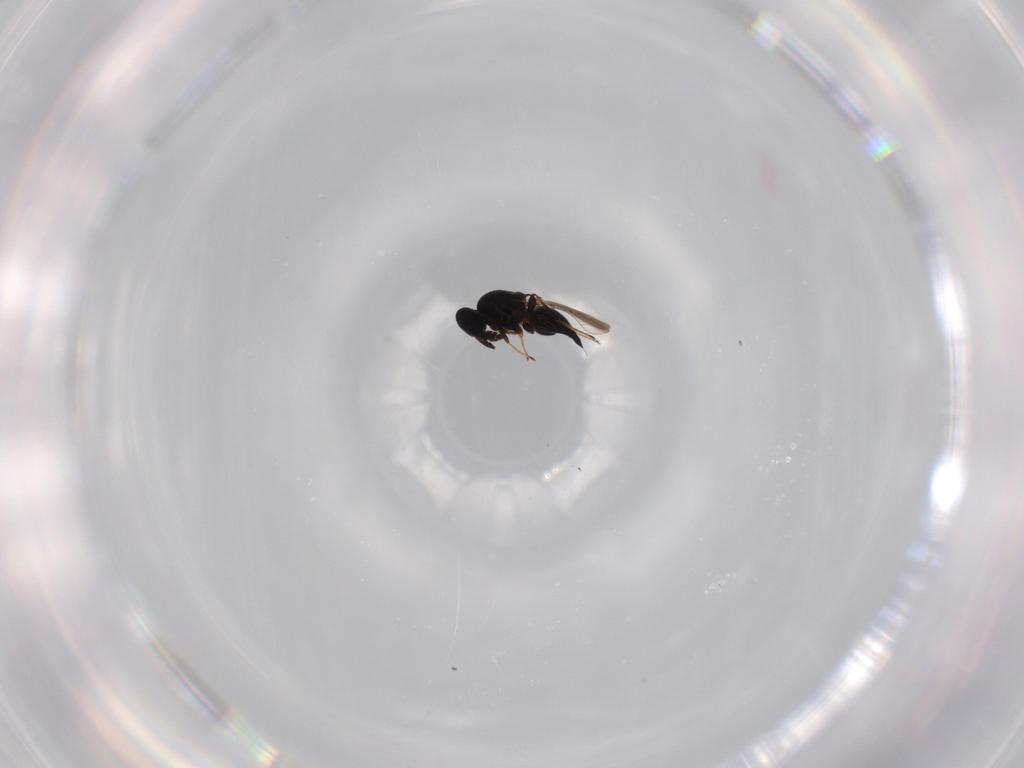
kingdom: Animalia
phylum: Arthropoda
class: Insecta
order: Hymenoptera
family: Platygastridae
